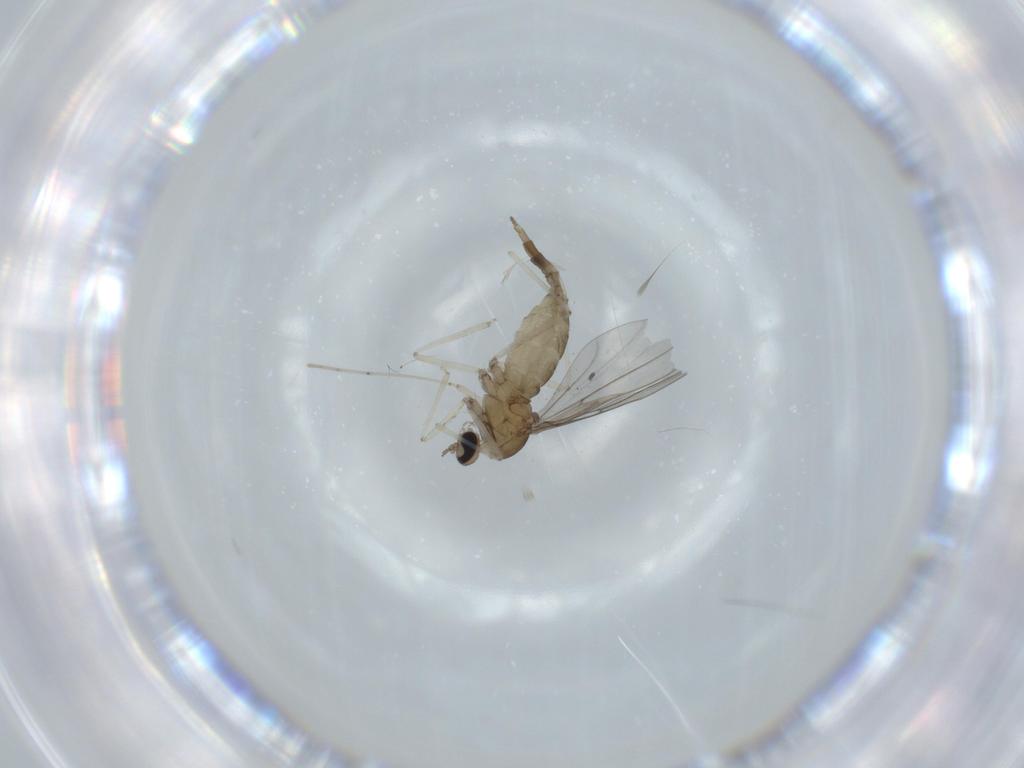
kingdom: Animalia
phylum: Arthropoda
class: Insecta
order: Diptera
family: Cecidomyiidae
